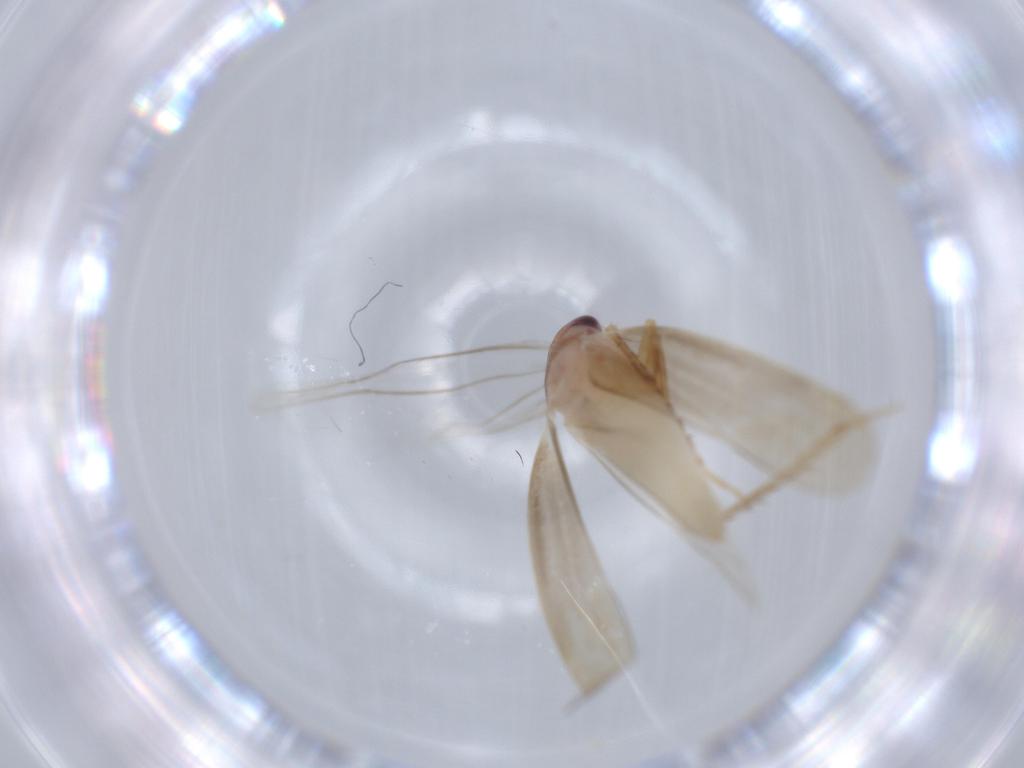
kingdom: Animalia
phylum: Arthropoda
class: Insecta
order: Hemiptera
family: Cicadellidae
